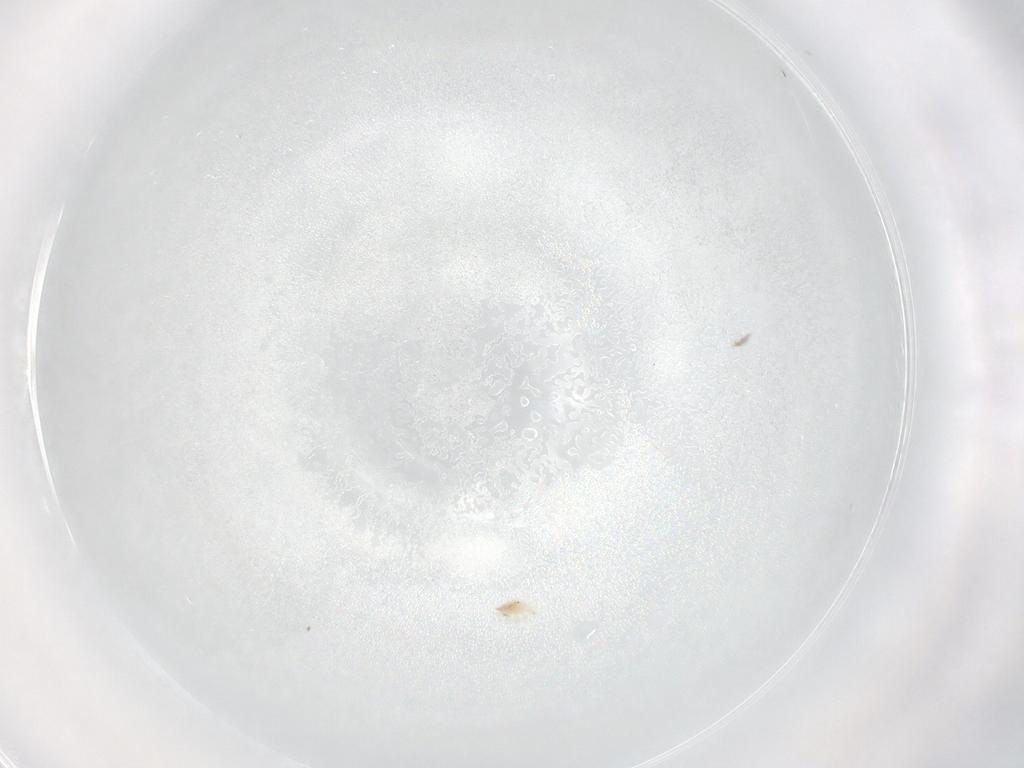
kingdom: Animalia
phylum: Arthropoda
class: Arachnida
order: Trombidiformes
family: Bdellidae
